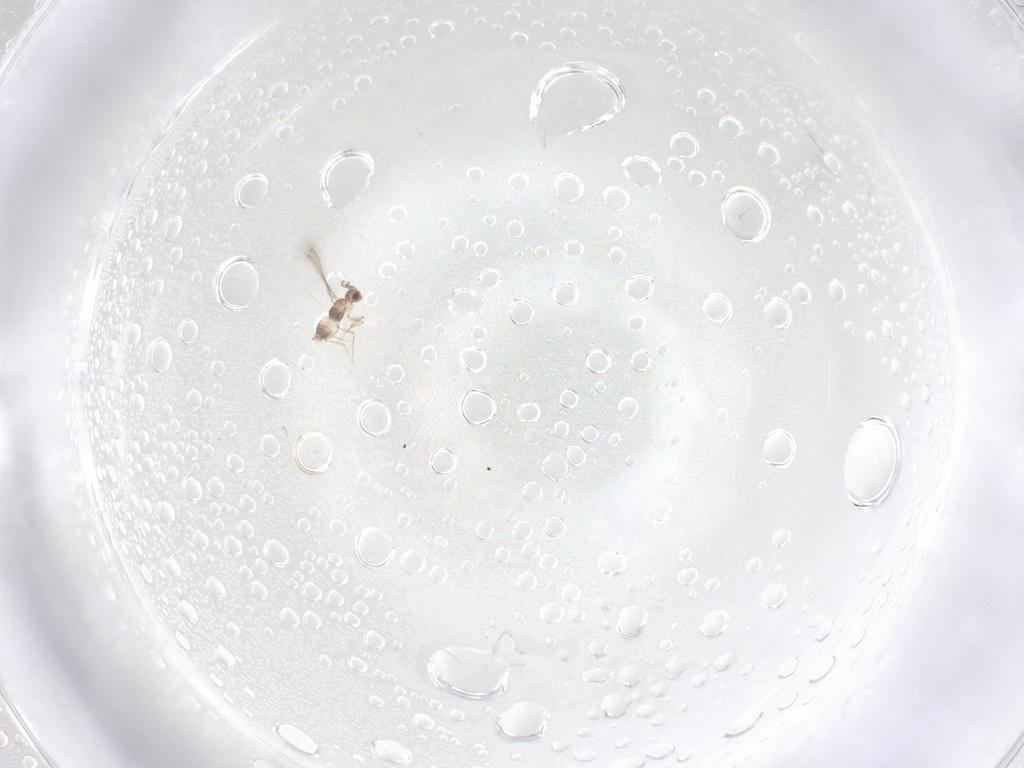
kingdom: Animalia
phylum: Arthropoda
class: Insecta
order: Hymenoptera
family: Mymaridae
